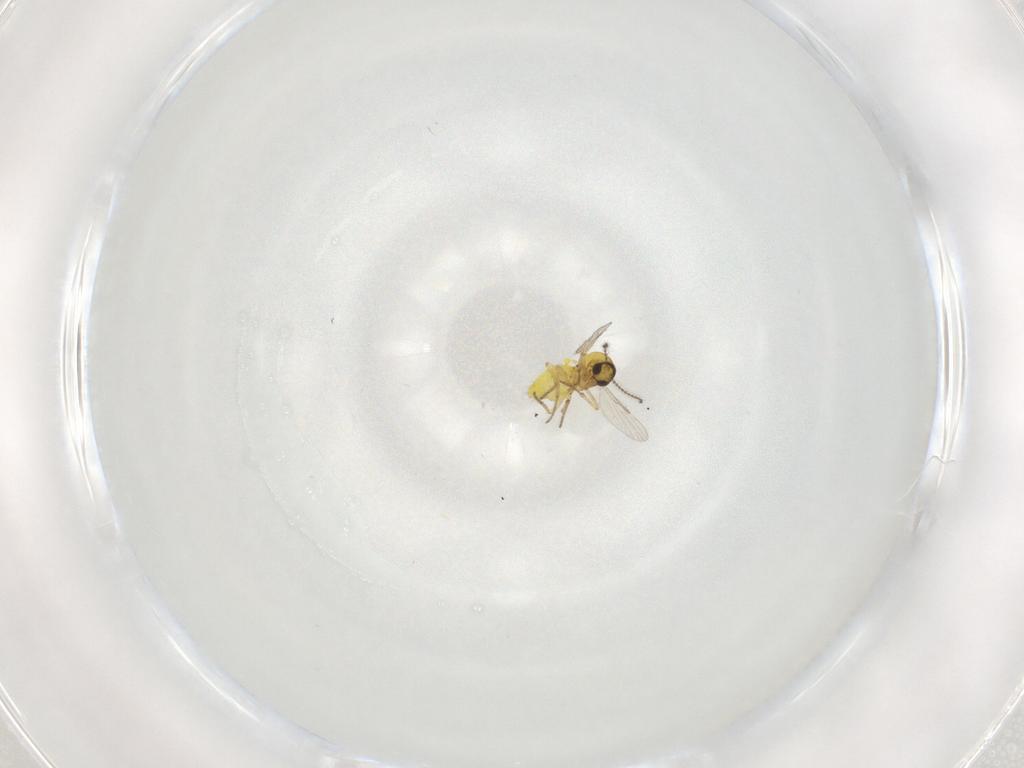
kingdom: Animalia
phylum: Arthropoda
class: Insecta
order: Diptera
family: Ceratopogonidae
